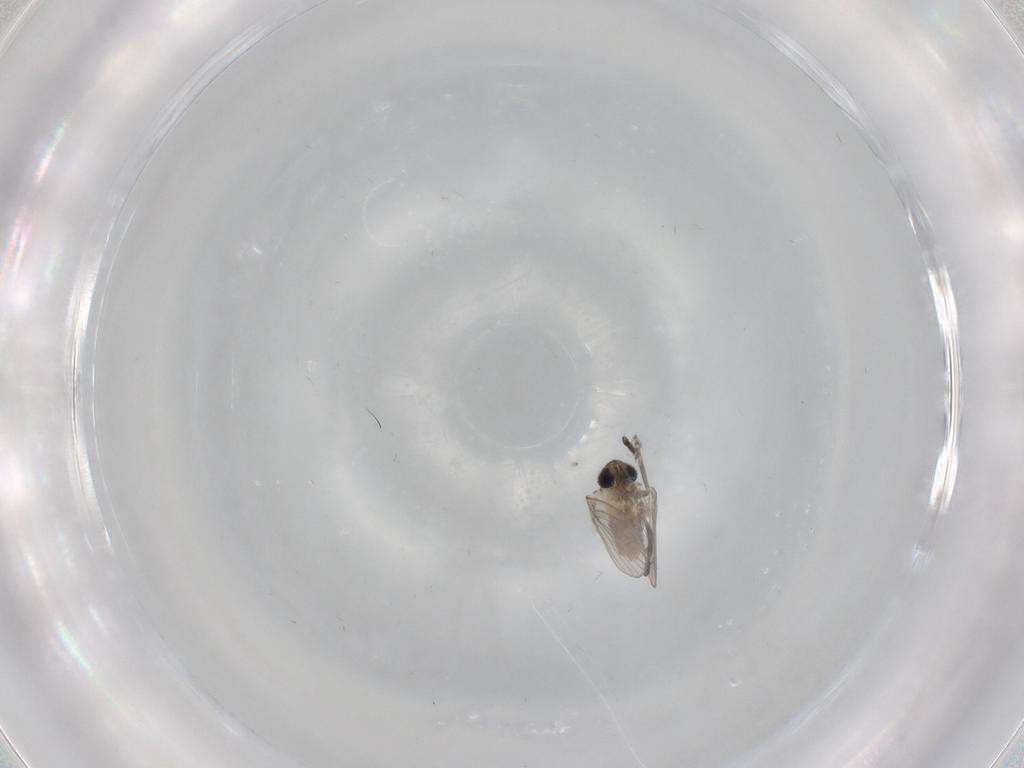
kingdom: Animalia
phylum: Arthropoda
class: Insecta
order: Diptera
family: Psychodidae
